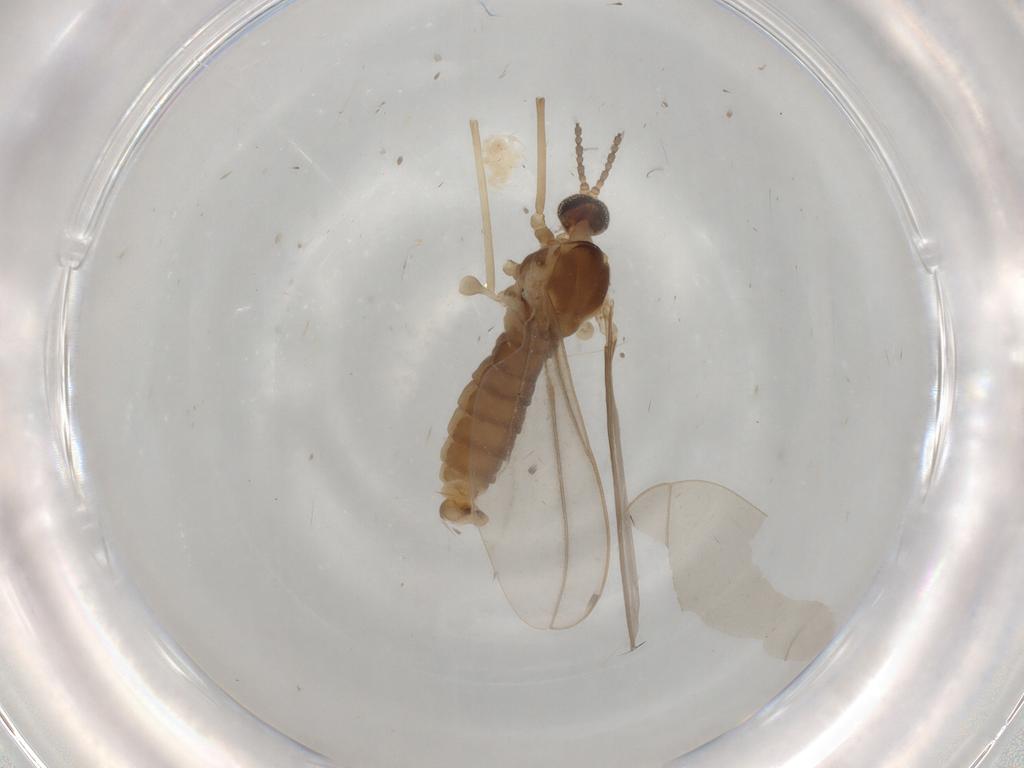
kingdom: Animalia
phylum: Arthropoda
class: Insecta
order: Diptera
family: Cecidomyiidae
